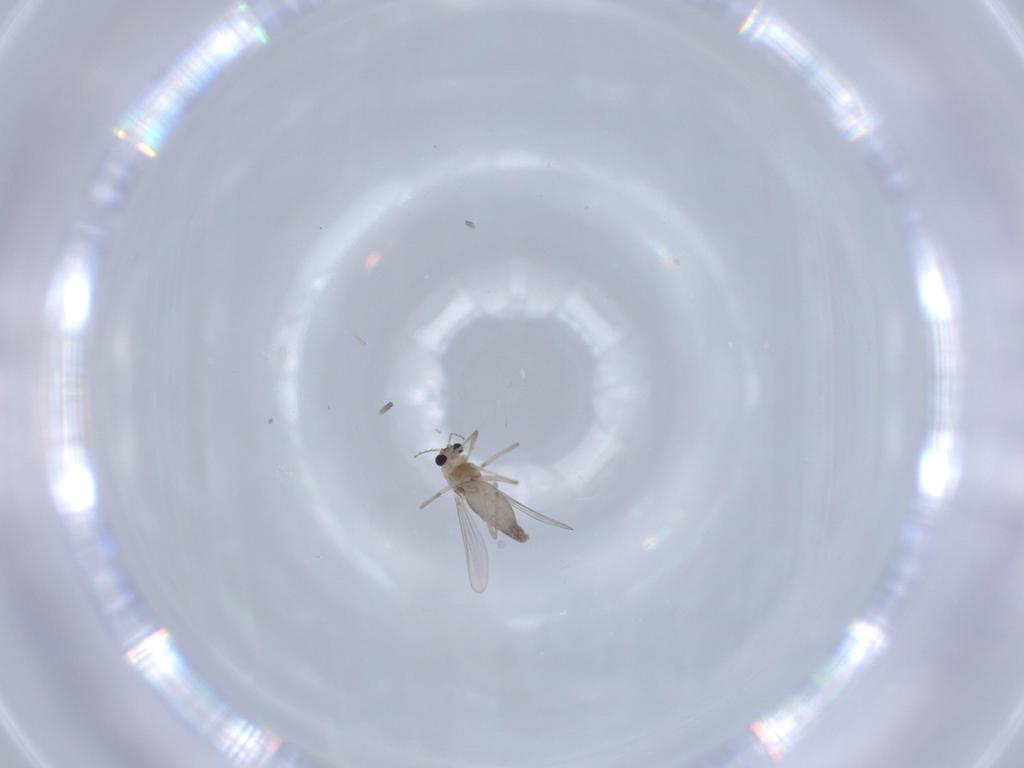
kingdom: Animalia
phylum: Arthropoda
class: Insecta
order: Diptera
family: Chironomidae
